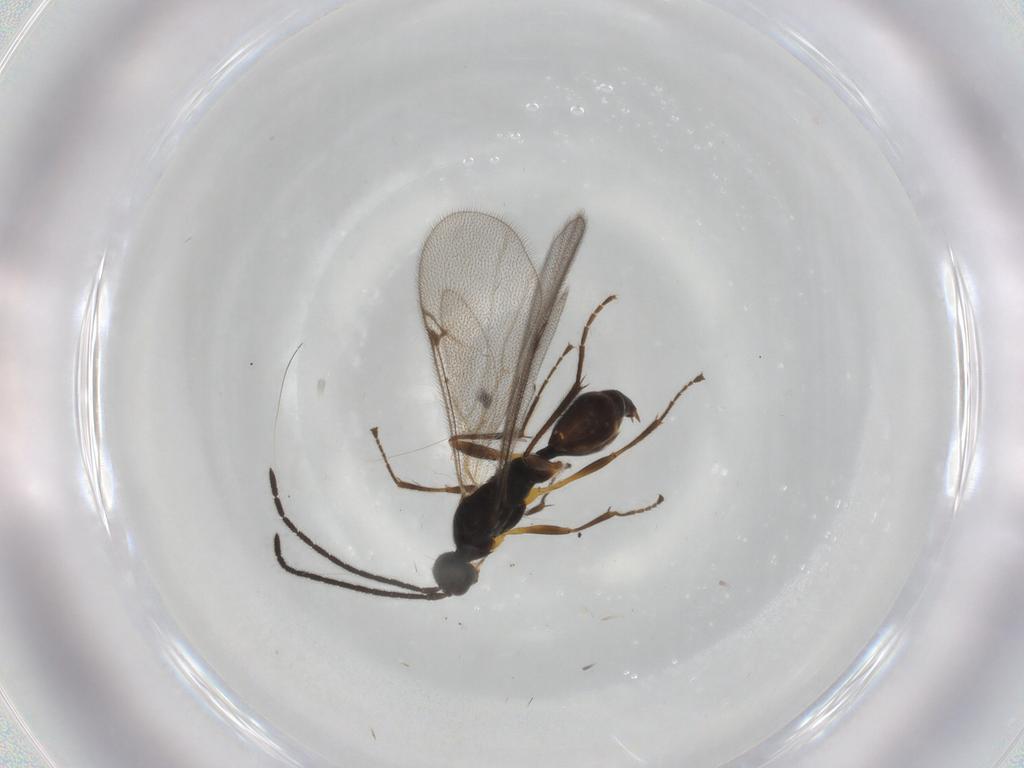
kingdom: Animalia
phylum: Arthropoda
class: Insecta
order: Hymenoptera
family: Proctotrupidae
